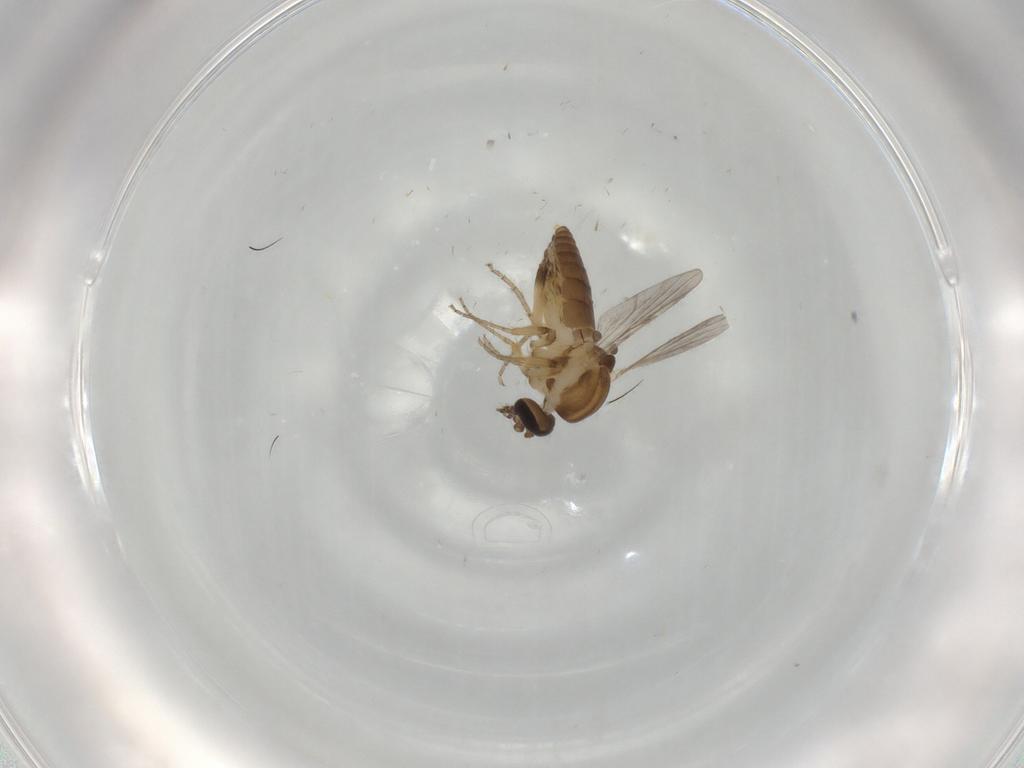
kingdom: Animalia
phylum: Arthropoda
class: Insecta
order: Diptera
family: Ceratopogonidae
